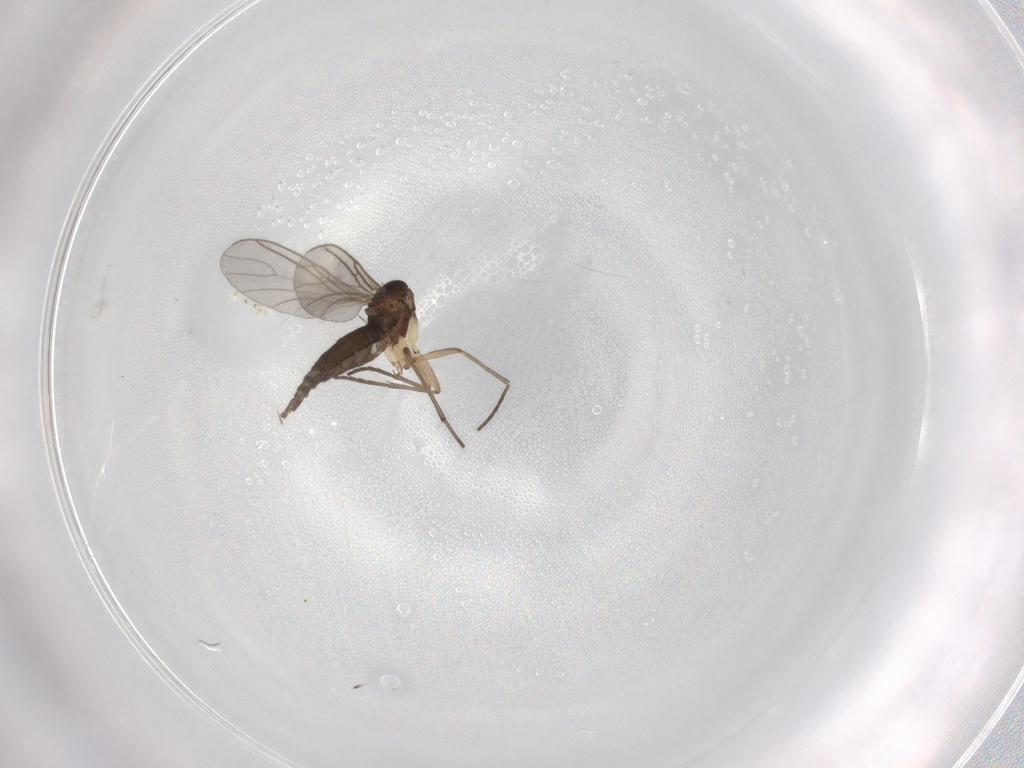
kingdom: Animalia
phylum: Arthropoda
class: Insecta
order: Diptera
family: Sciaridae
